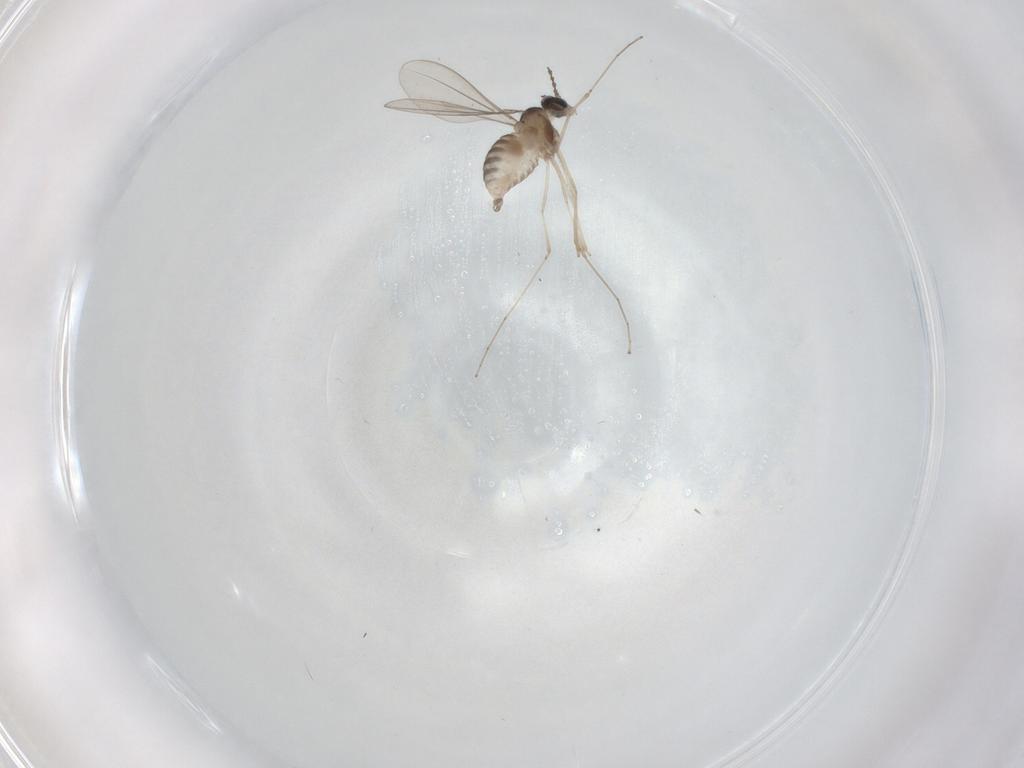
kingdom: Animalia
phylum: Arthropoda
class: Insecta
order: Diptera
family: Cecidomyiidae
